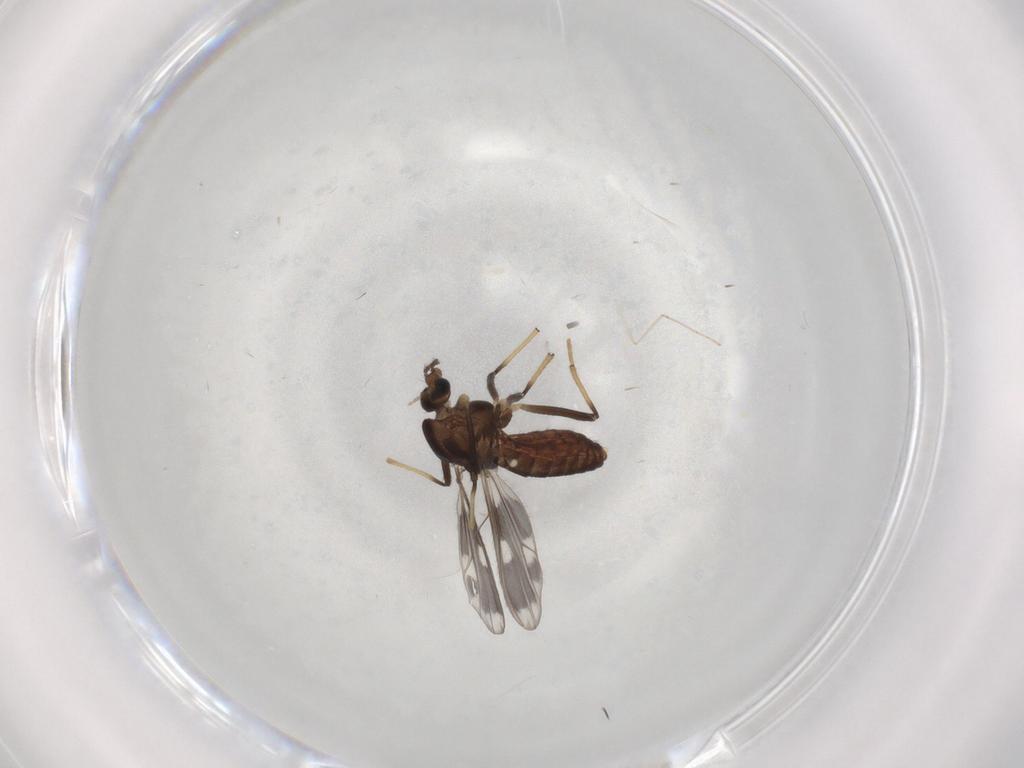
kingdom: Animalia
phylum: Arthropoda
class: Insecta
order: Diptera
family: Chironomidae
